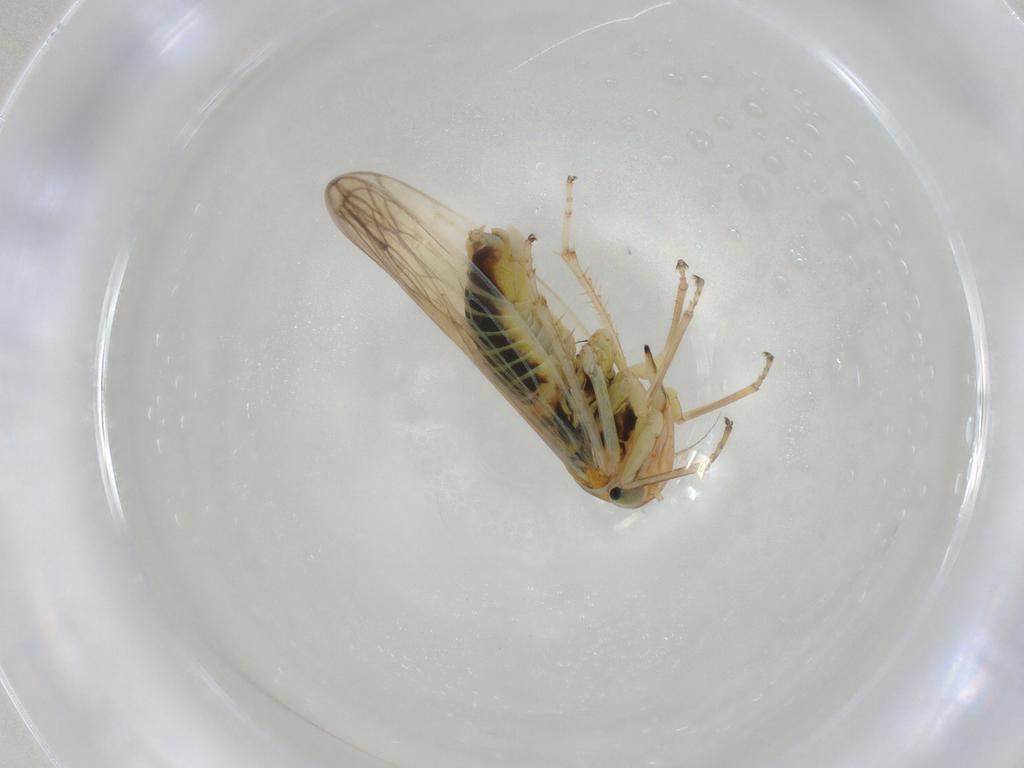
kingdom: Animalia
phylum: Arthropoda
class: Insecta
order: Hemiptera
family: Cicadellidae
